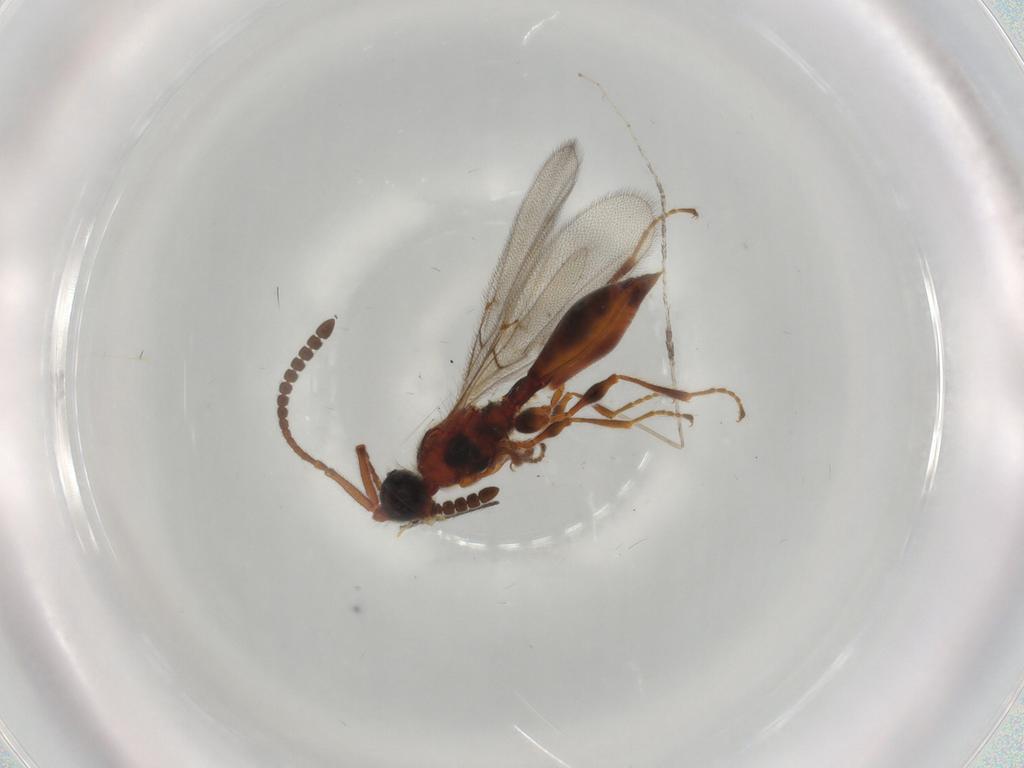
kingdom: Animalia
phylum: Arthropoda
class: Insecta
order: Hymenoptera
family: Diapriidae
